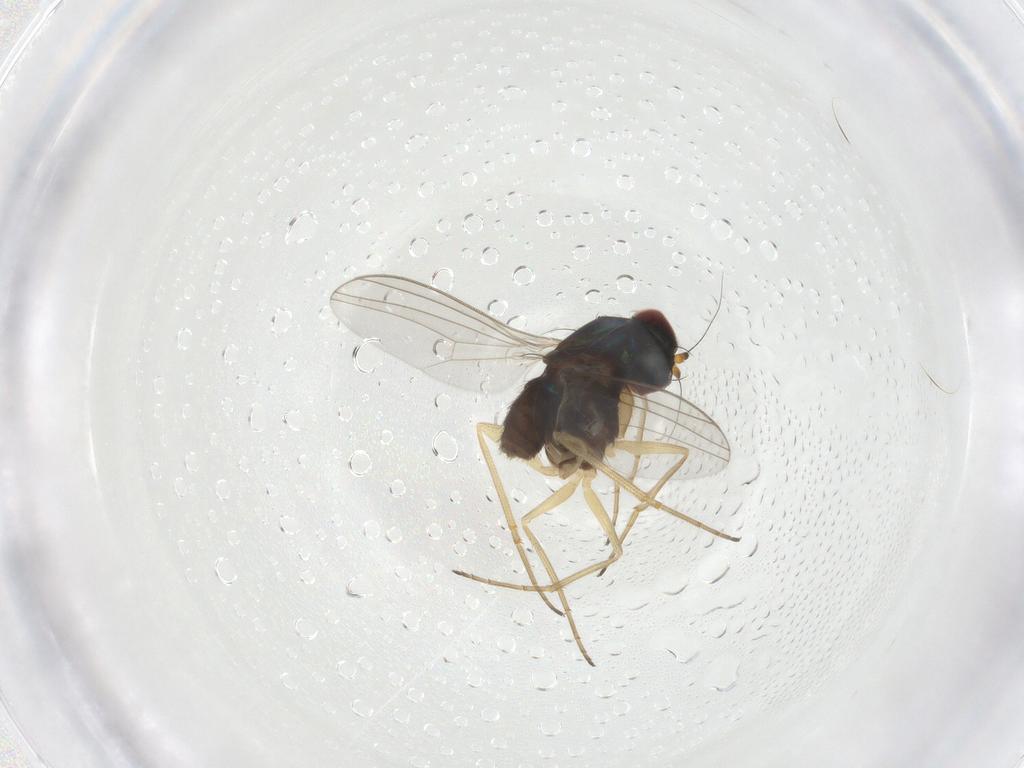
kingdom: Animalia
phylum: Arthropoda
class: Insecta
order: Diptera
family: Dolichopodidae
